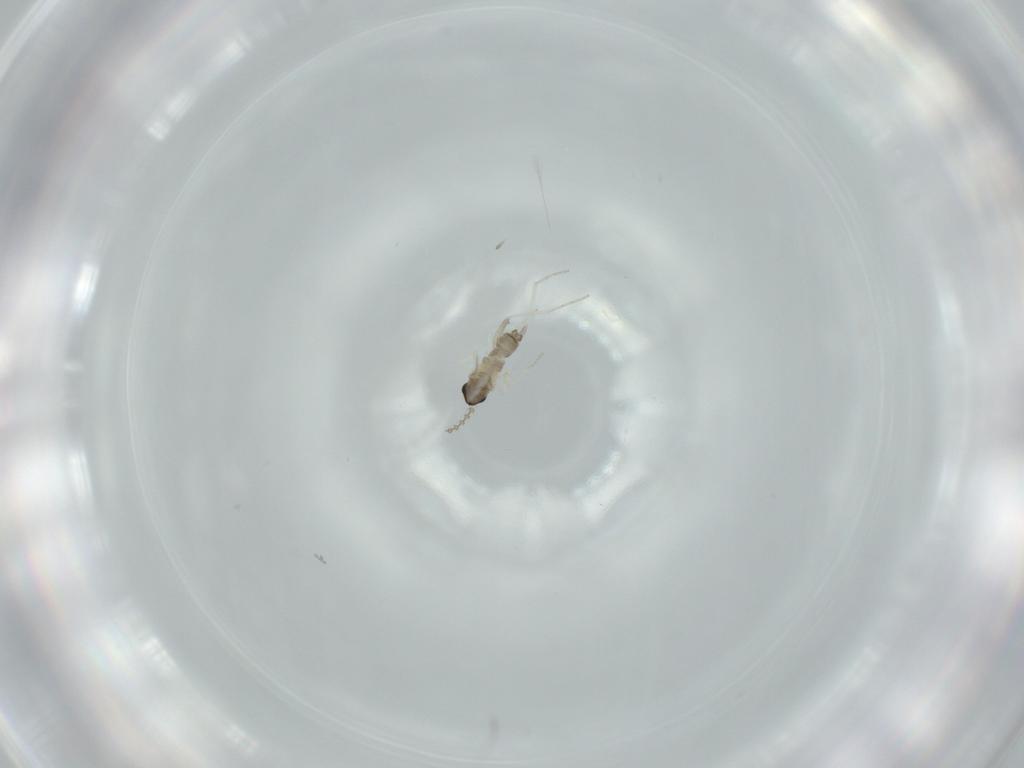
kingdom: Animalia
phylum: Arthropoda
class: Insecta
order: Diptera
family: Cecidomyiidae
